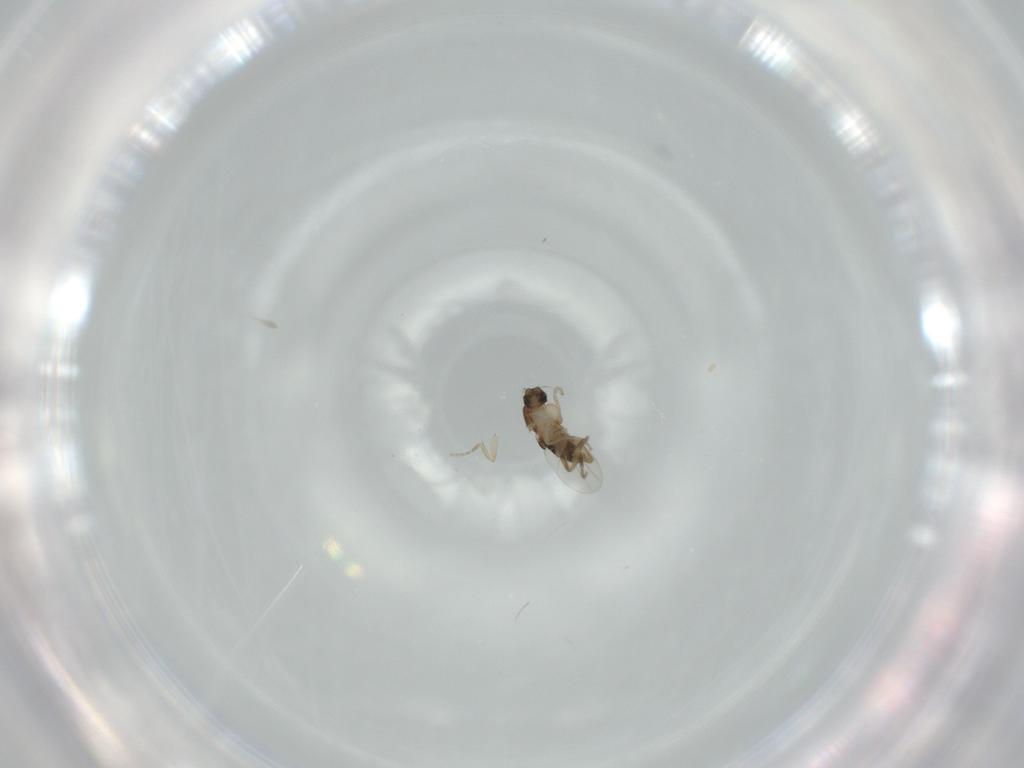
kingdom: Animalia
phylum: Arthropoda
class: Insecta
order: Diptera
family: Phoridae
